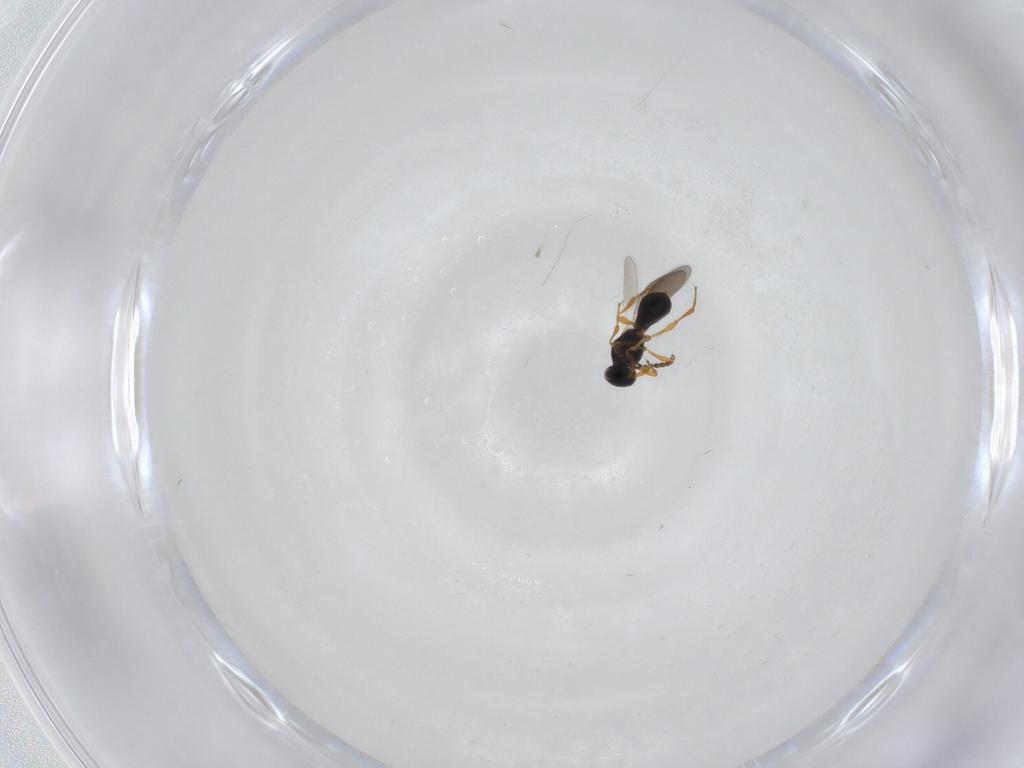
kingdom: Animalia
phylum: Arthropoda
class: Insecta
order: Hymenoptera
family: Platygastridae
